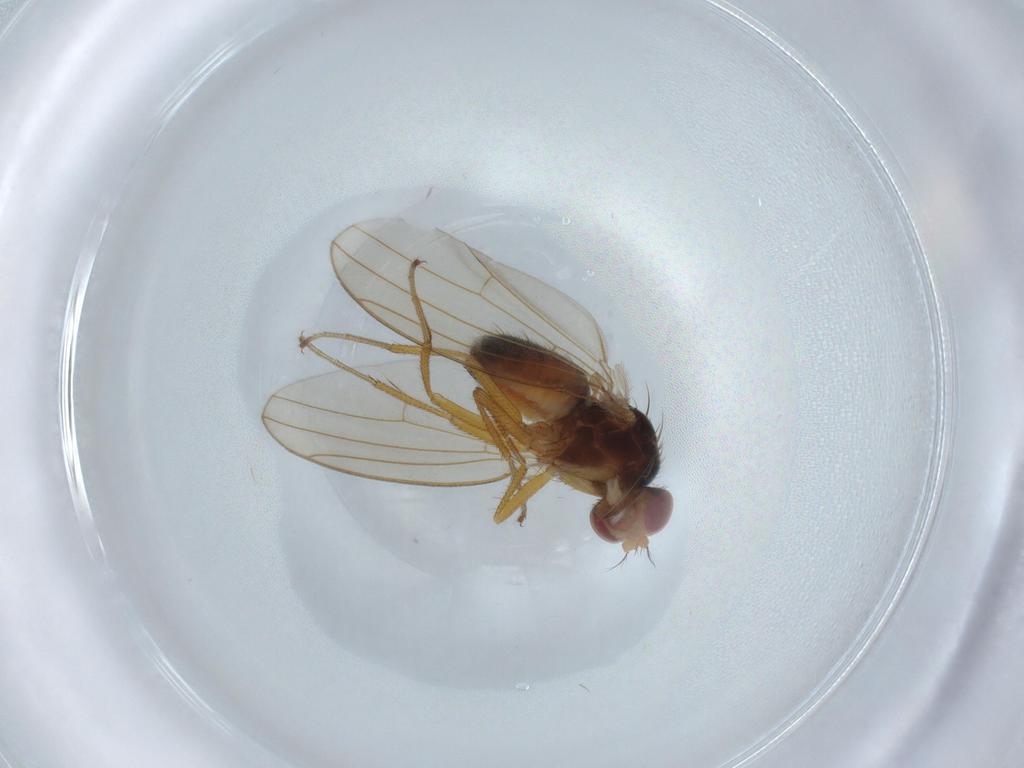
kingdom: Animalia
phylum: Arthropoda
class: Insecta
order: Diptera
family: Drosophilidae
